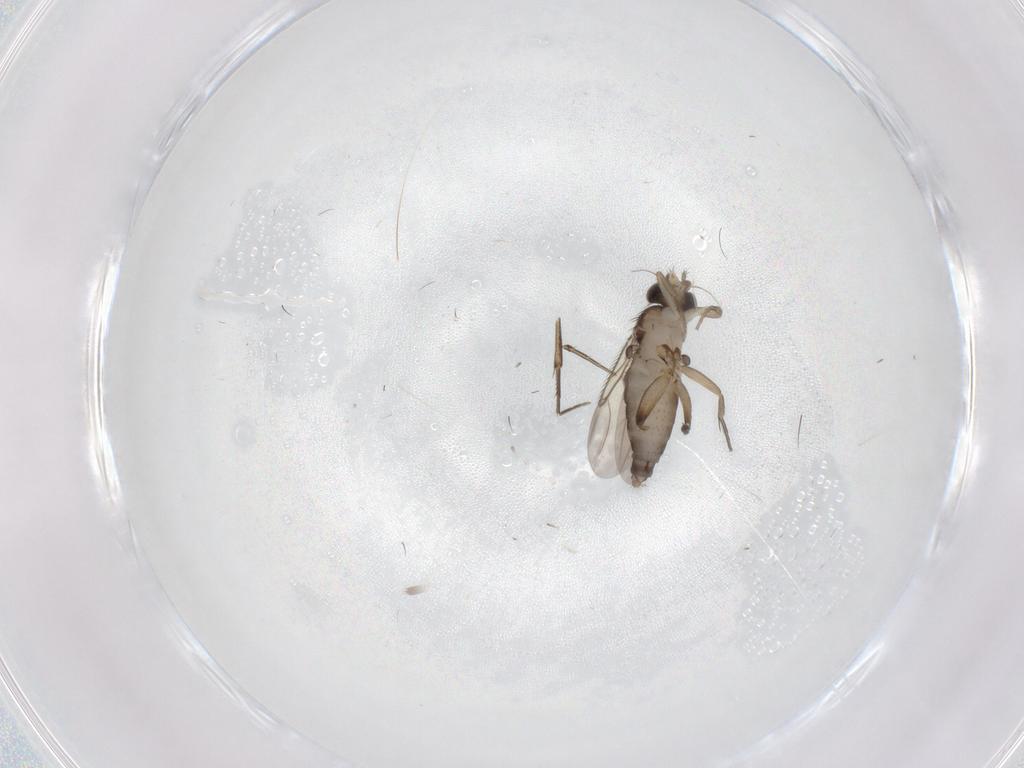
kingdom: Animalia
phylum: Arthropoda
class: Insecta
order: Diptera
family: Phoridae
